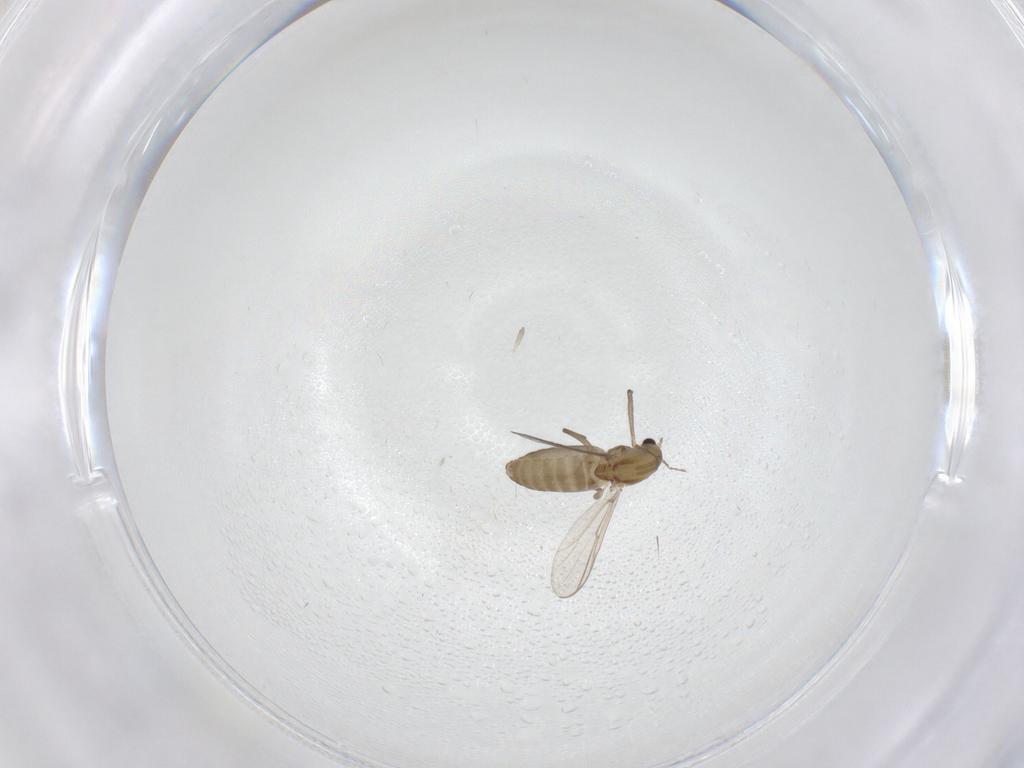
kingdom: Animalia
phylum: Arthropoda
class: Insecta
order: Diptera
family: Chironomidae
